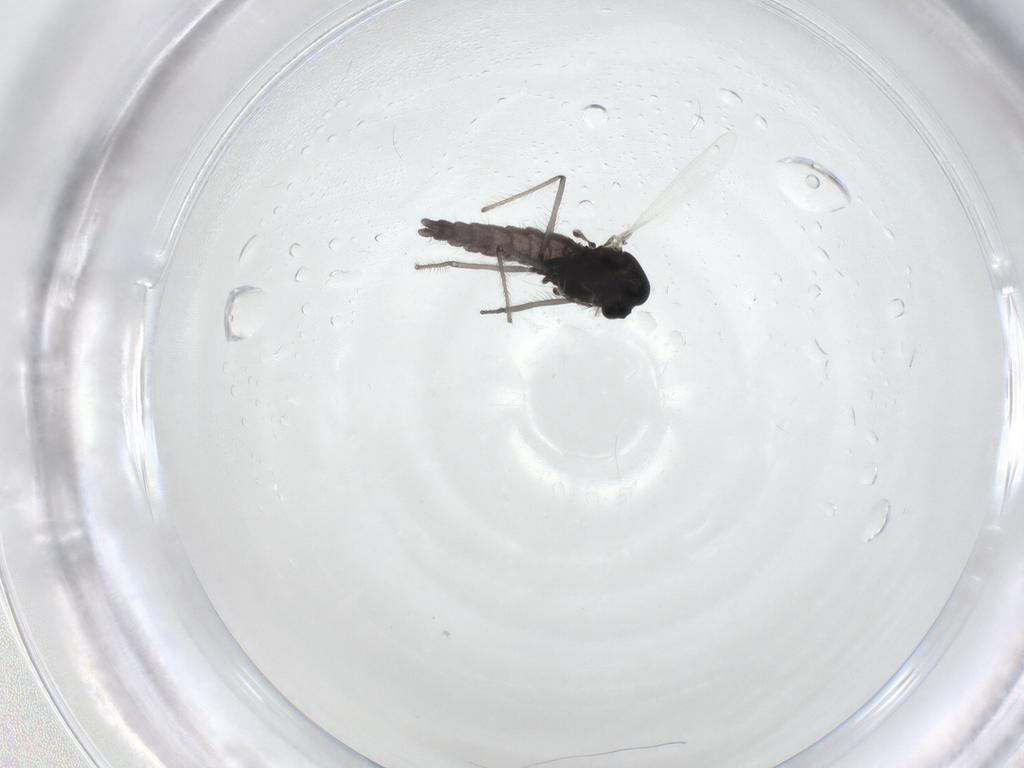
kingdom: Animalia
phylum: Arthropoda
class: Insecta
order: Diptera
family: Chironomidae
